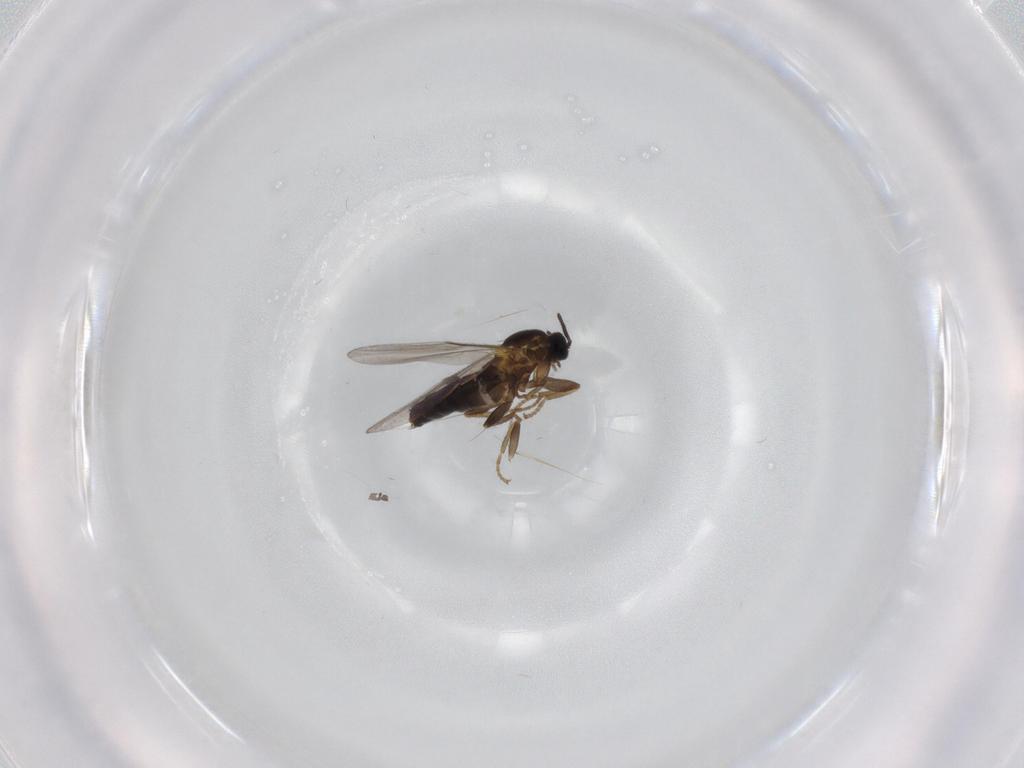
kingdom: Animalia
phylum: Arthropoda
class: Insecta
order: Diptera
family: Scatopsidae
